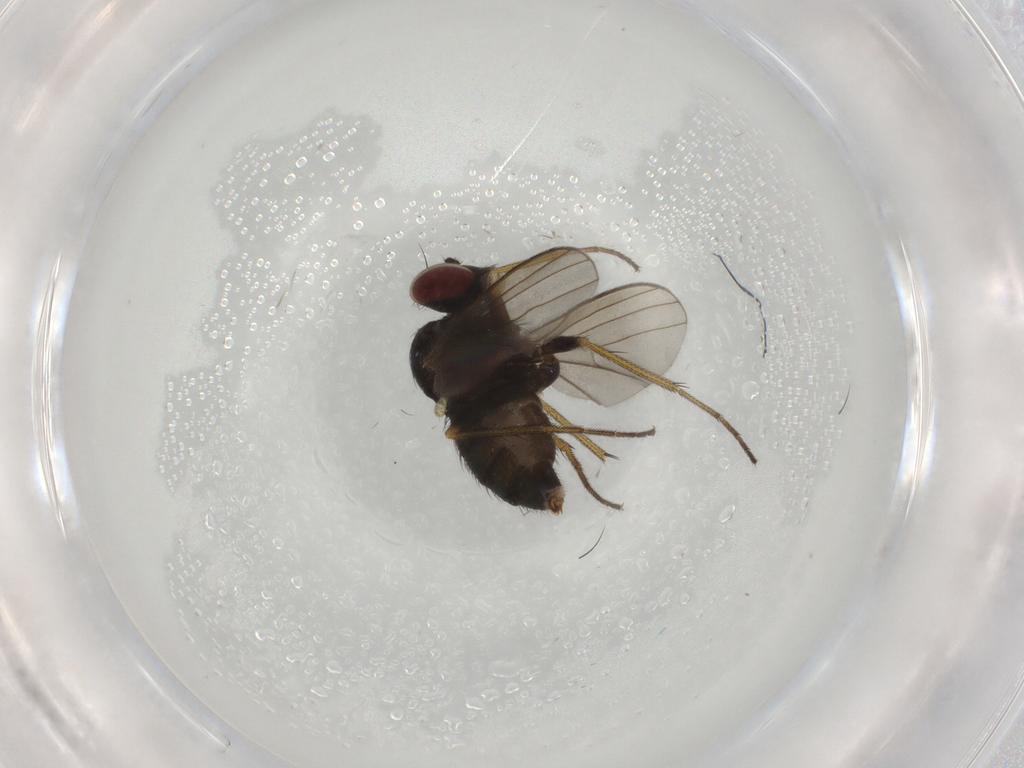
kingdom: Animalia
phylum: Arthropoda
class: Insecta
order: Diptera
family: Dolichopodidae
